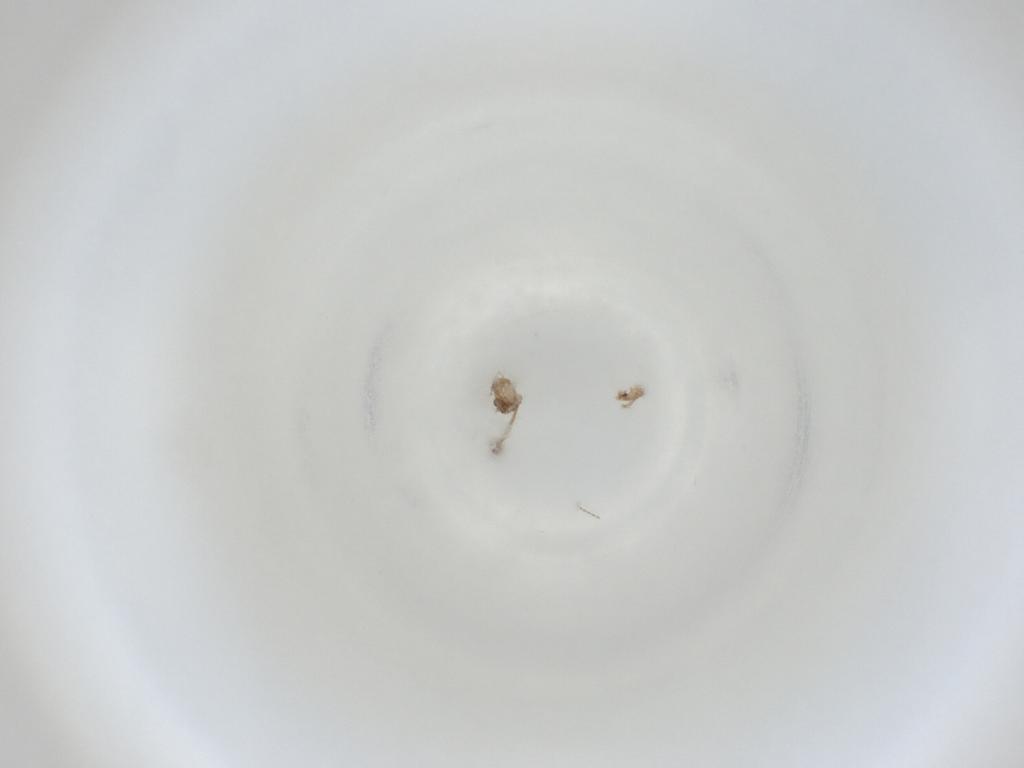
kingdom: Animalia
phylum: Arthropoda
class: Insecta
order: Diptera
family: Cecidomyiidae
